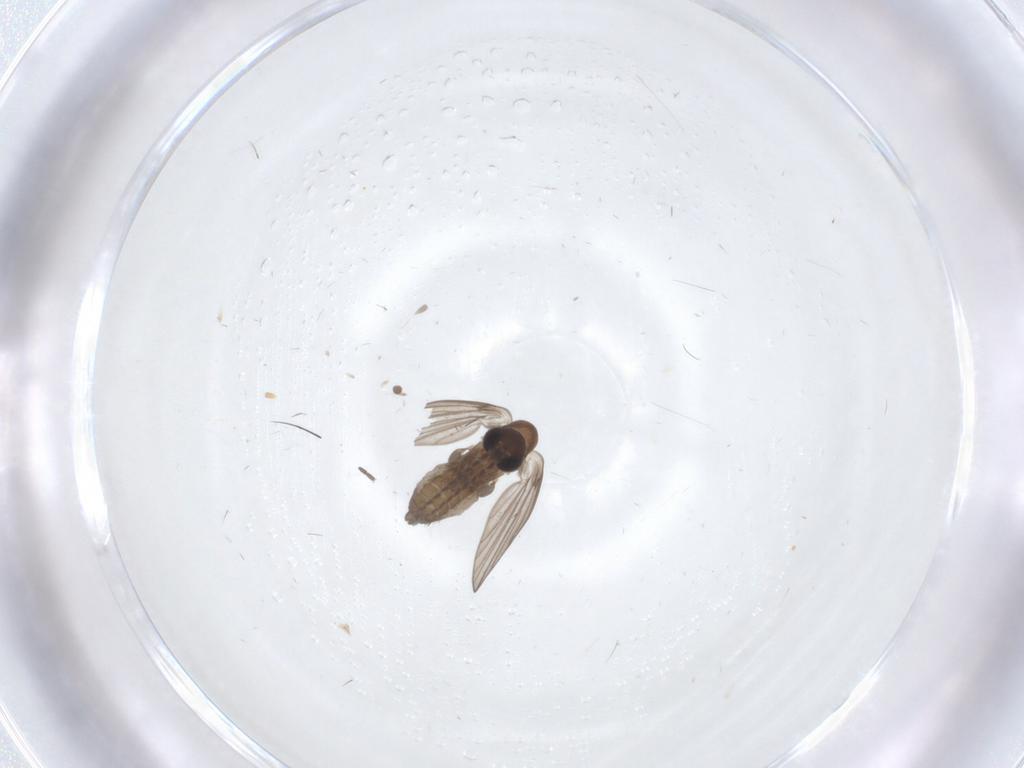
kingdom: Animalia
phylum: Arthropoda
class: Insecta
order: Diptera
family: Psychodidae
